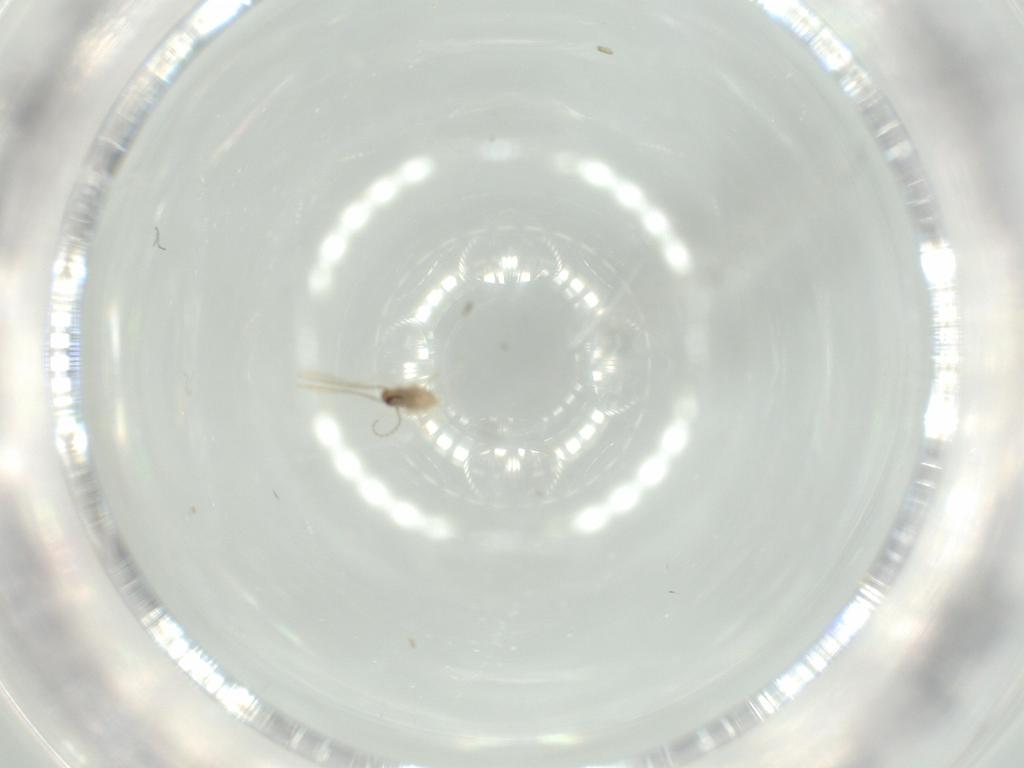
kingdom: Animalia
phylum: Arthropoda
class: Insecta
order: Diptera
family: Cecidomyiidae
